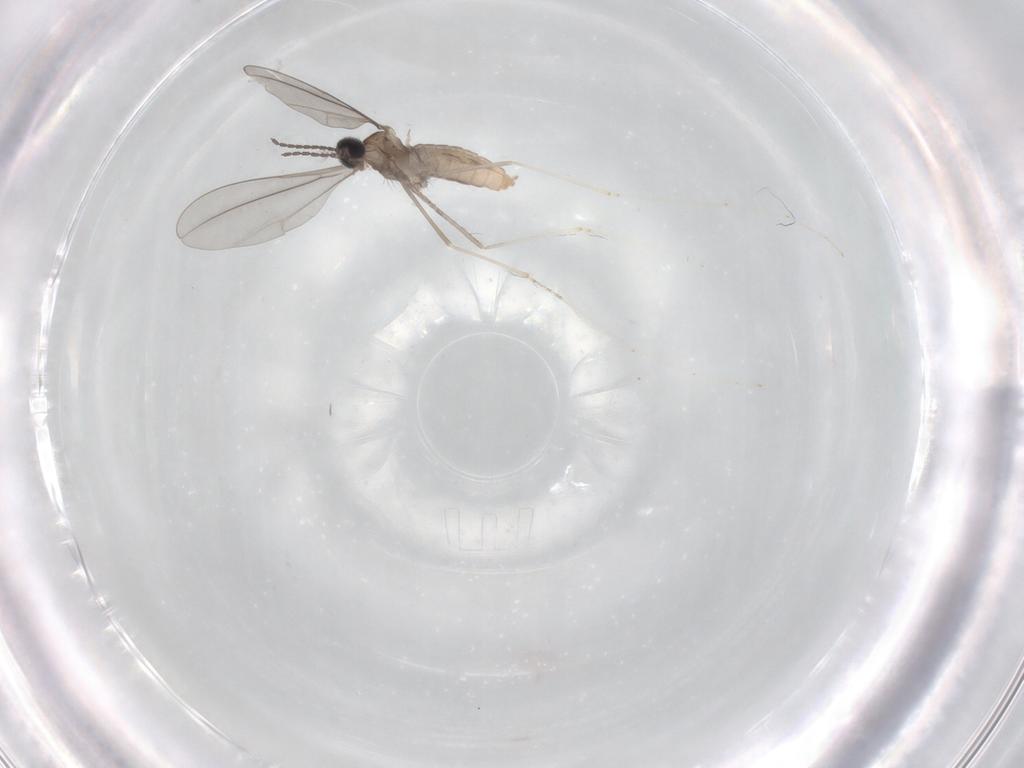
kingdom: Animalia
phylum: Arthropoda
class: Insecta
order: Diptera
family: Cecidomyiidae
